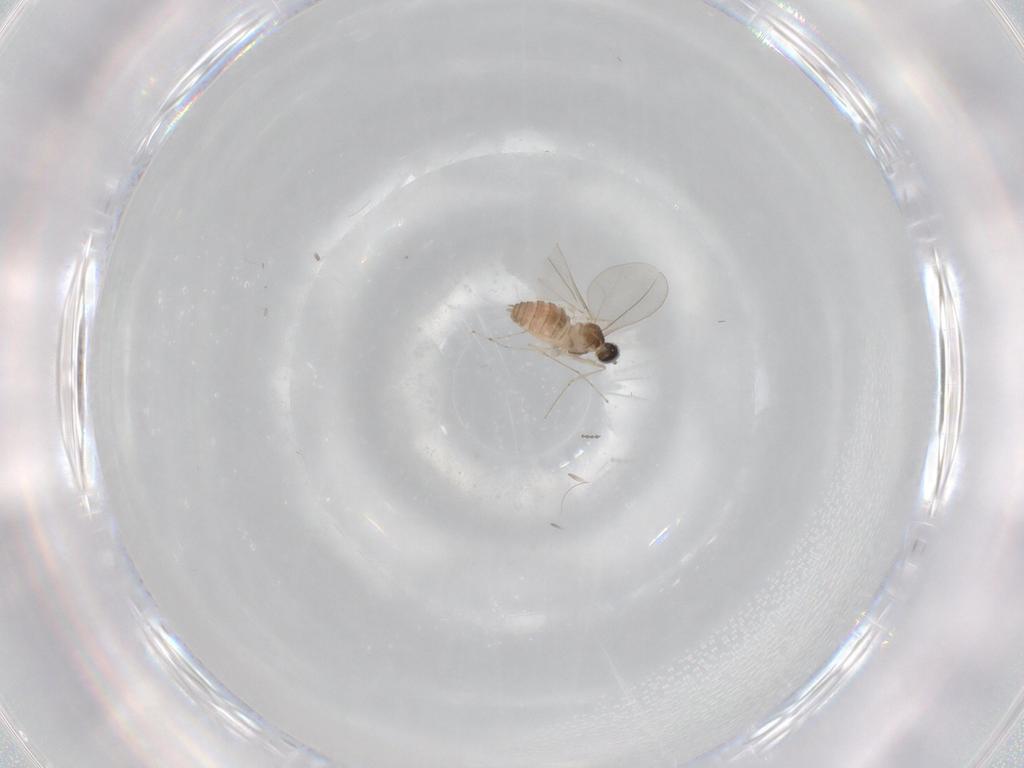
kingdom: Animalia
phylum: Arthropoda
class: Insecta
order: Diptera
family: Cecidomyiidae
